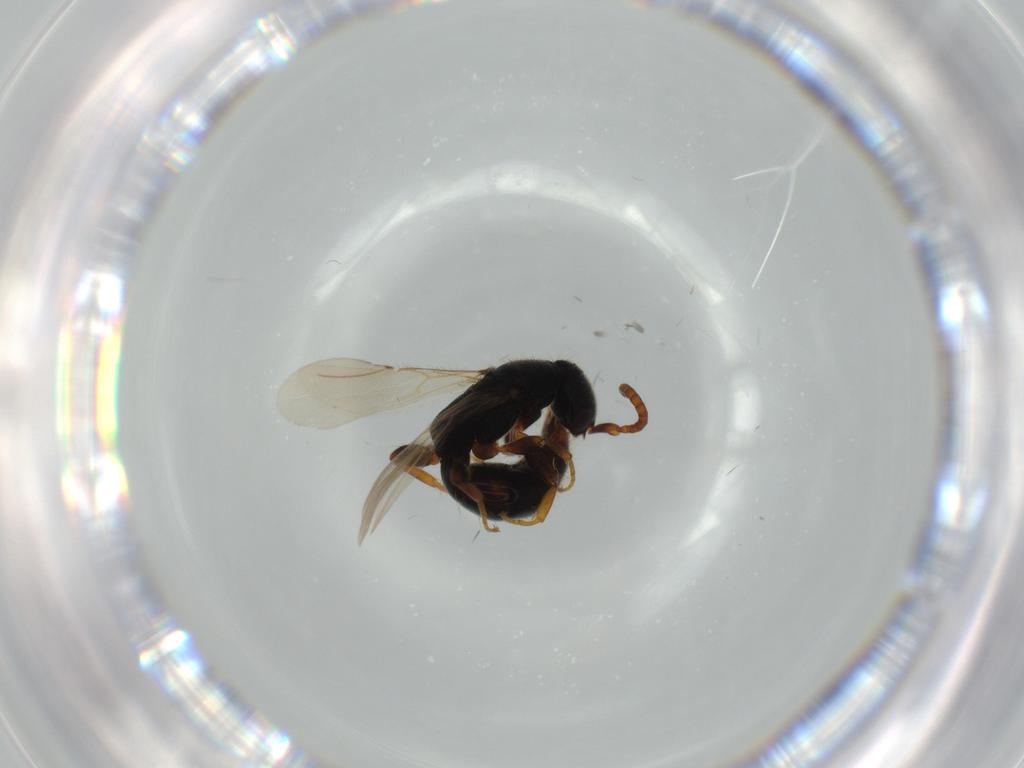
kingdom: Animalia
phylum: Arthropoda
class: Insecta
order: Hymenoptera
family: Bethylidae
